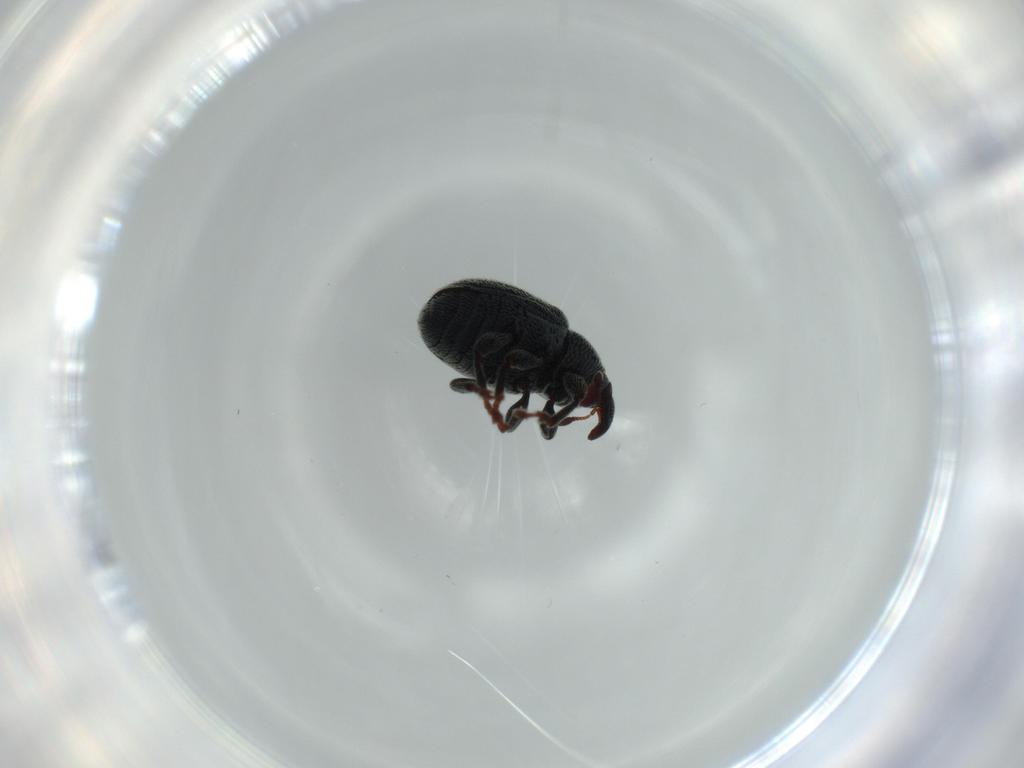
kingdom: Animalia
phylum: Arthropoda
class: Insecta
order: Coleoptera
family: Curculionidae
